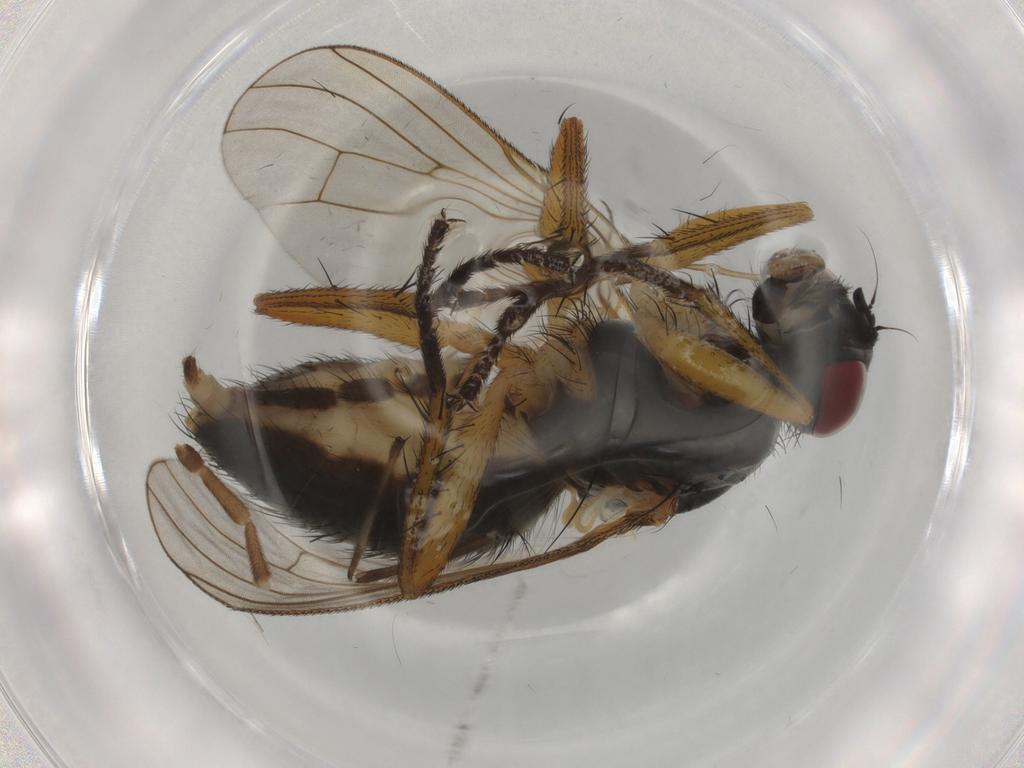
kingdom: Animalia
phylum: Arthropoda
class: Insecta
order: Diptera
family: Muscidae
